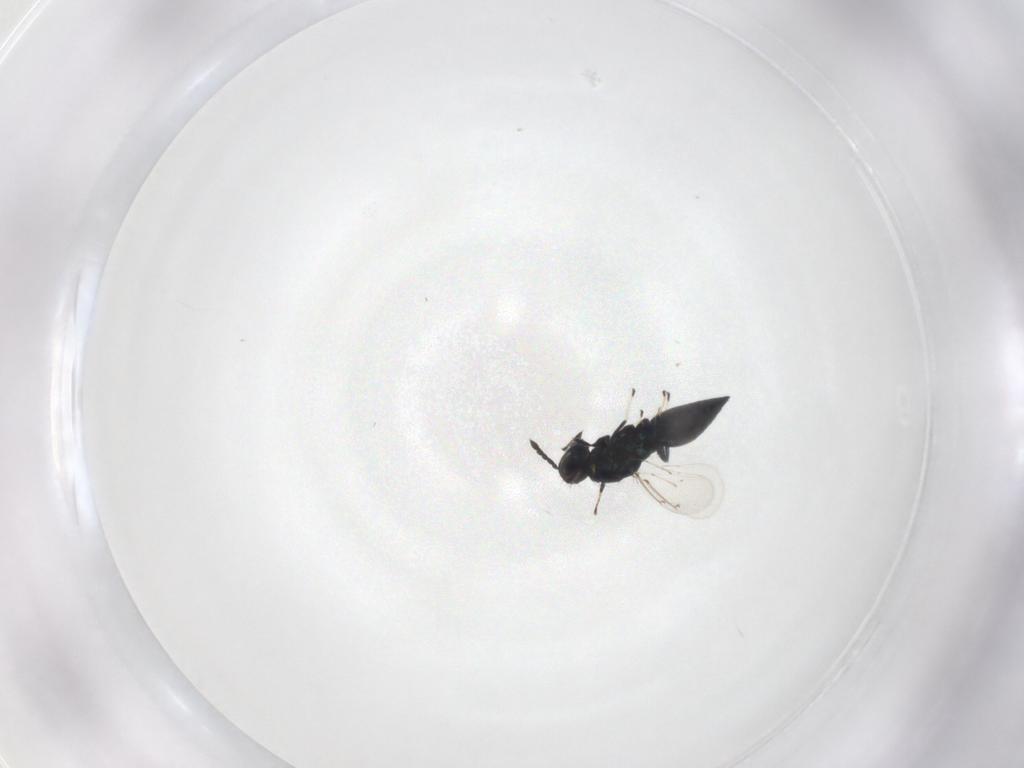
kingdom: Animalia
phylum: Arthropoda
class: Insecta
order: Hymenoptera
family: Eulophidae
